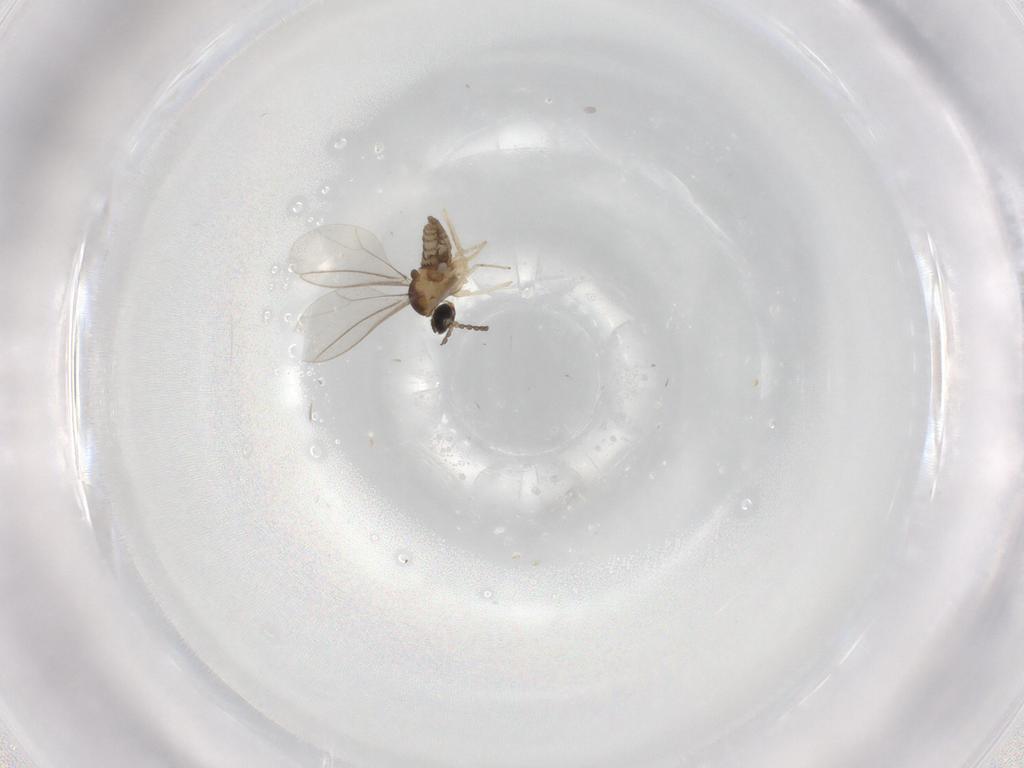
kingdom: Animalia
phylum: Arthropoda
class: Insecta
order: Diptera
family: Cecidomyiidae
